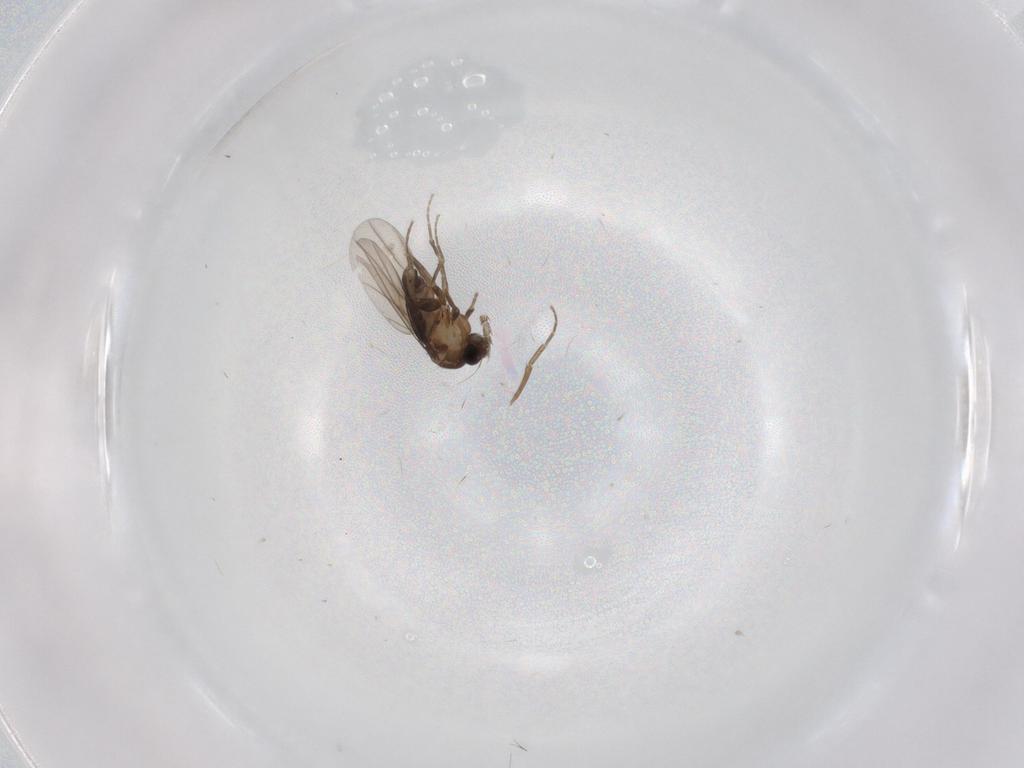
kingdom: Animalia
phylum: Arthropoda
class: Insecta
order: Diptera
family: Phoridae
